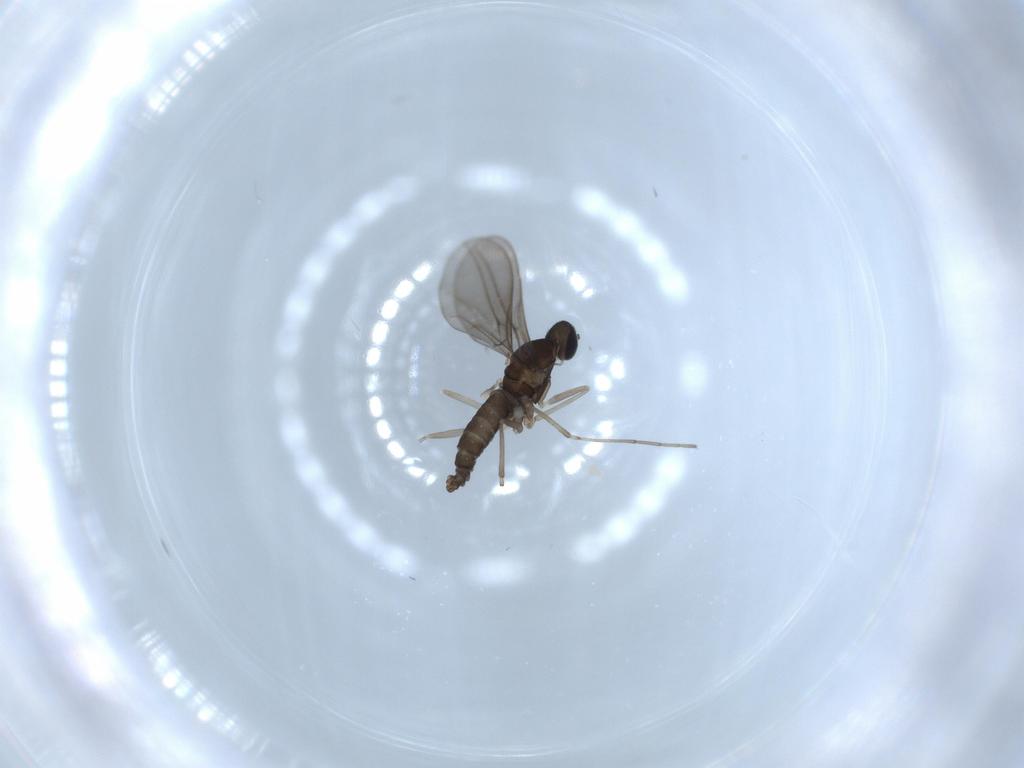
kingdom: Animalia
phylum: Arthropoda
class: Insecta
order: Diptera
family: Cecidomyiidae
